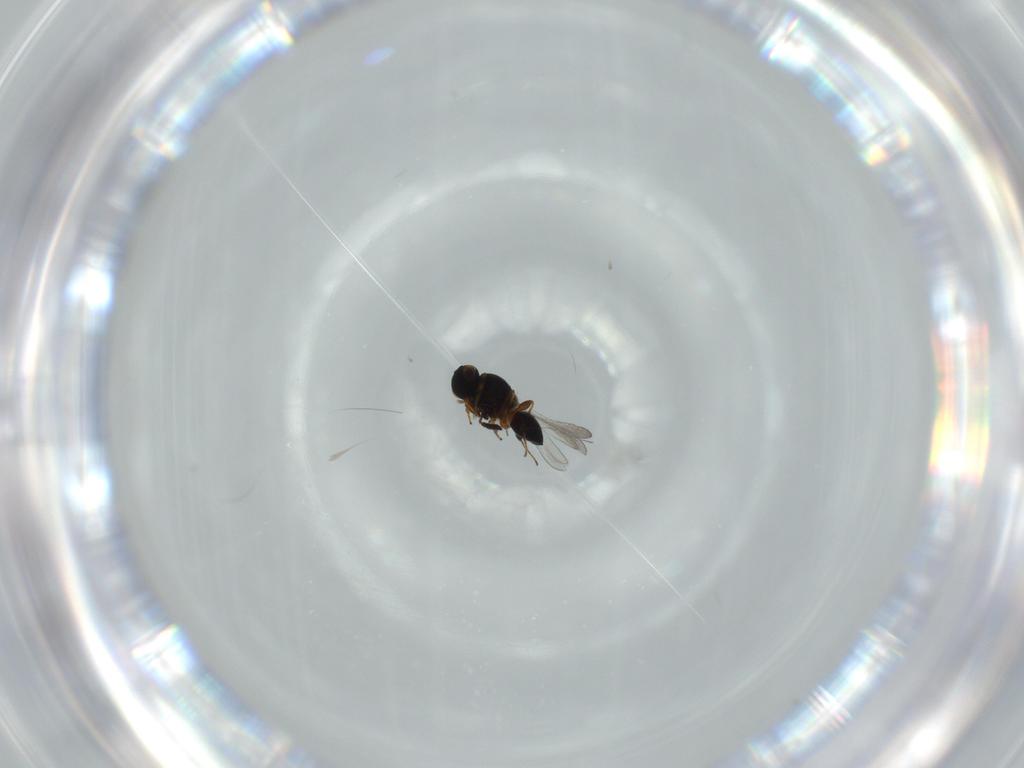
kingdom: Animalia
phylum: Arthropoda
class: Insecta
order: Hymenoptera
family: Platygastridae
